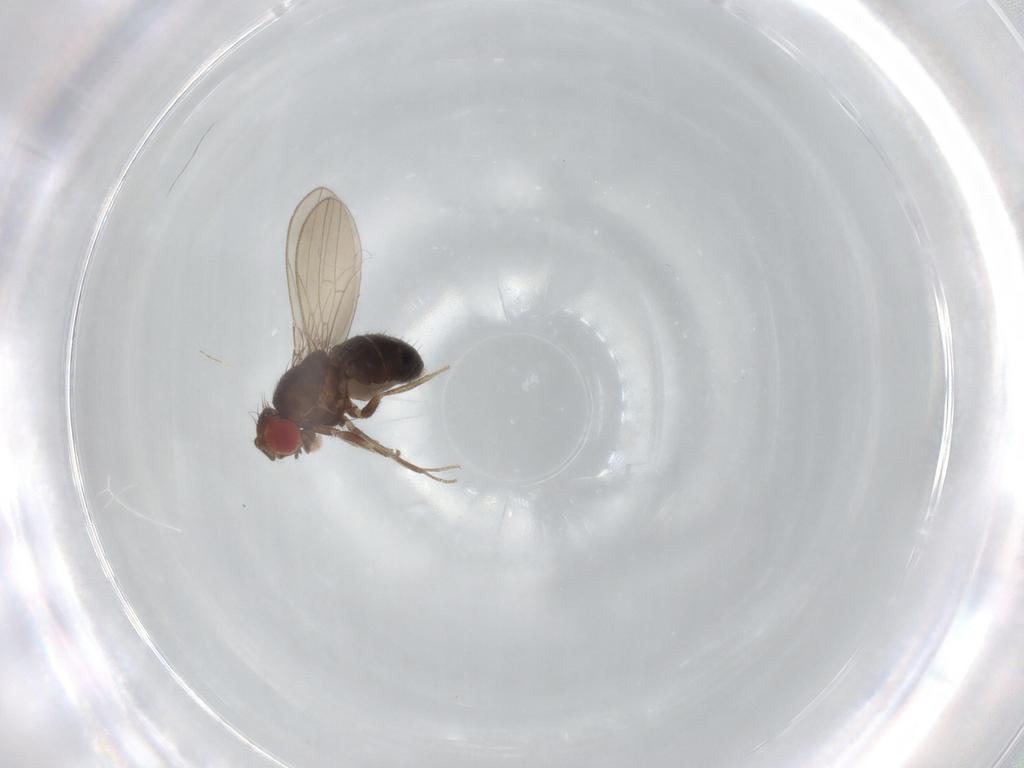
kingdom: Animalia
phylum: Arthropoda
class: Insecta
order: Diptera
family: Drosophilidae
